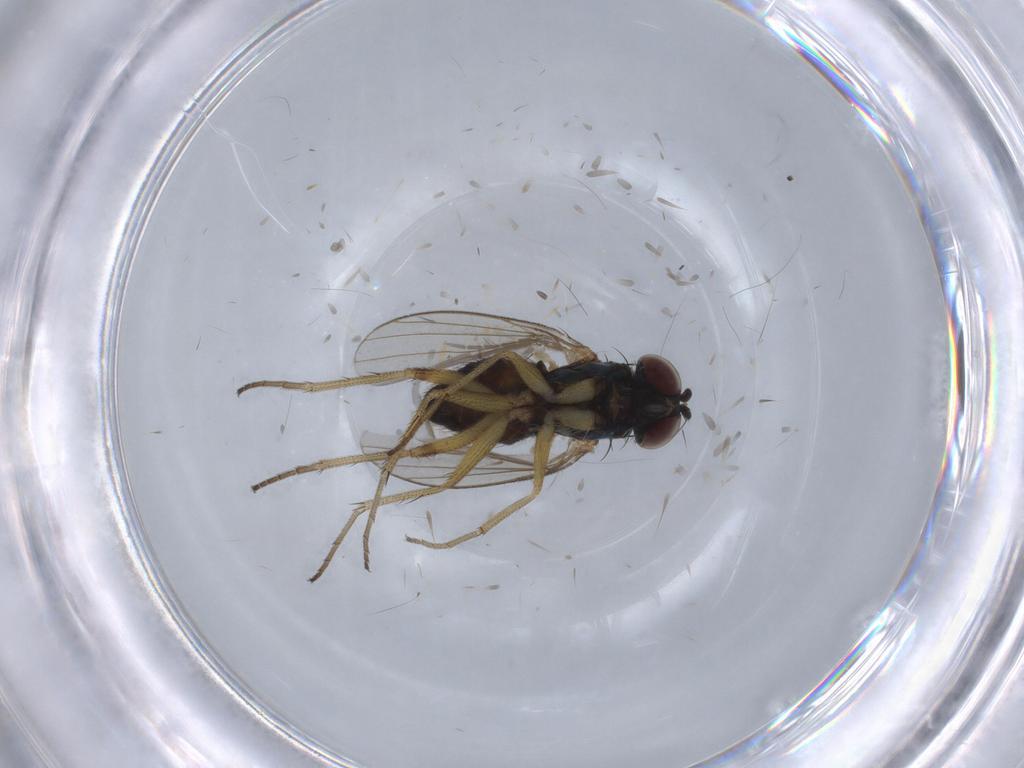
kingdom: Animalia
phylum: Arthropoda
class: Insecta
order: Diptera
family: Sciaridae
